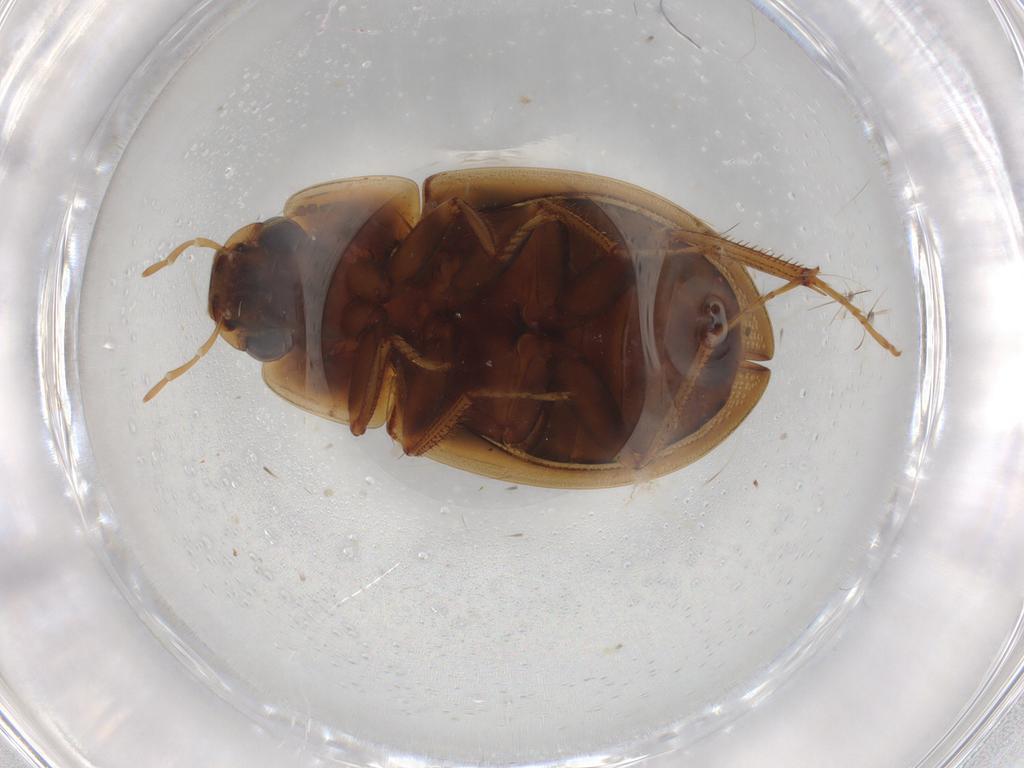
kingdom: Animalia
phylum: Arthropoda
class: Insecta
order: Coleoptera
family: Hydrophilidae
